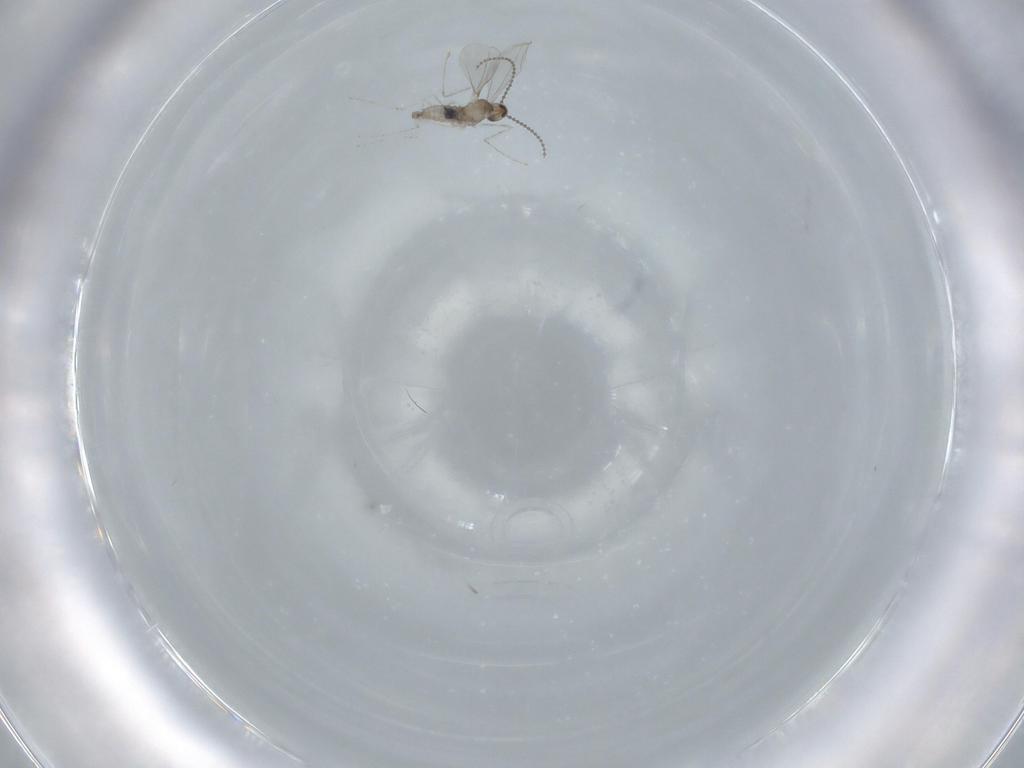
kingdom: Animalia
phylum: Arthropoda
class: Insecta
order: Diptera
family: Cecidomyiidae
